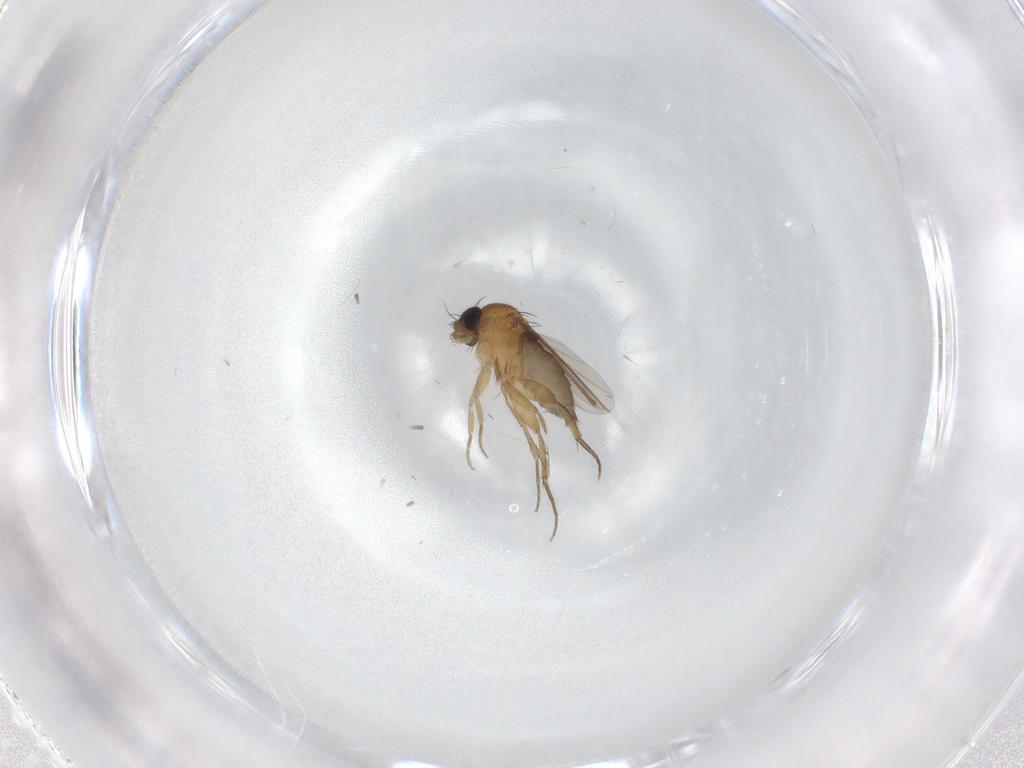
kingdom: Animalia
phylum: Arthropoda
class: Insecta
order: Diptera
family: Phoridae
